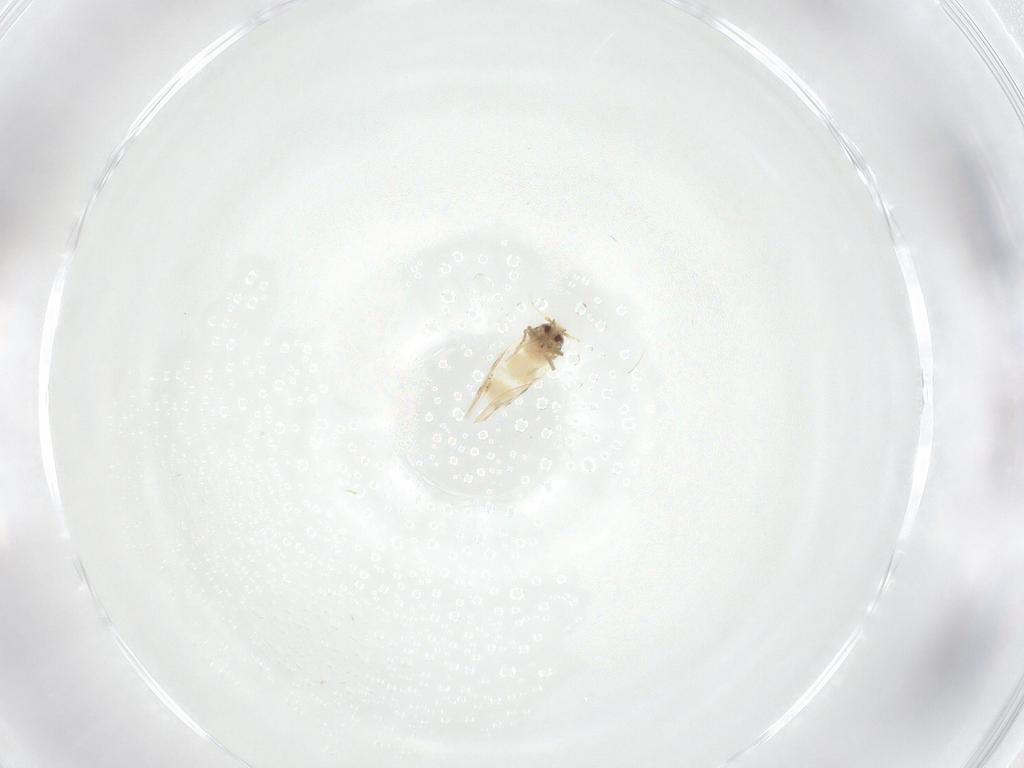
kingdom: Animalia
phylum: Arthropoda
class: Insecta
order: Hemiptera
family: Aleyrodidae
